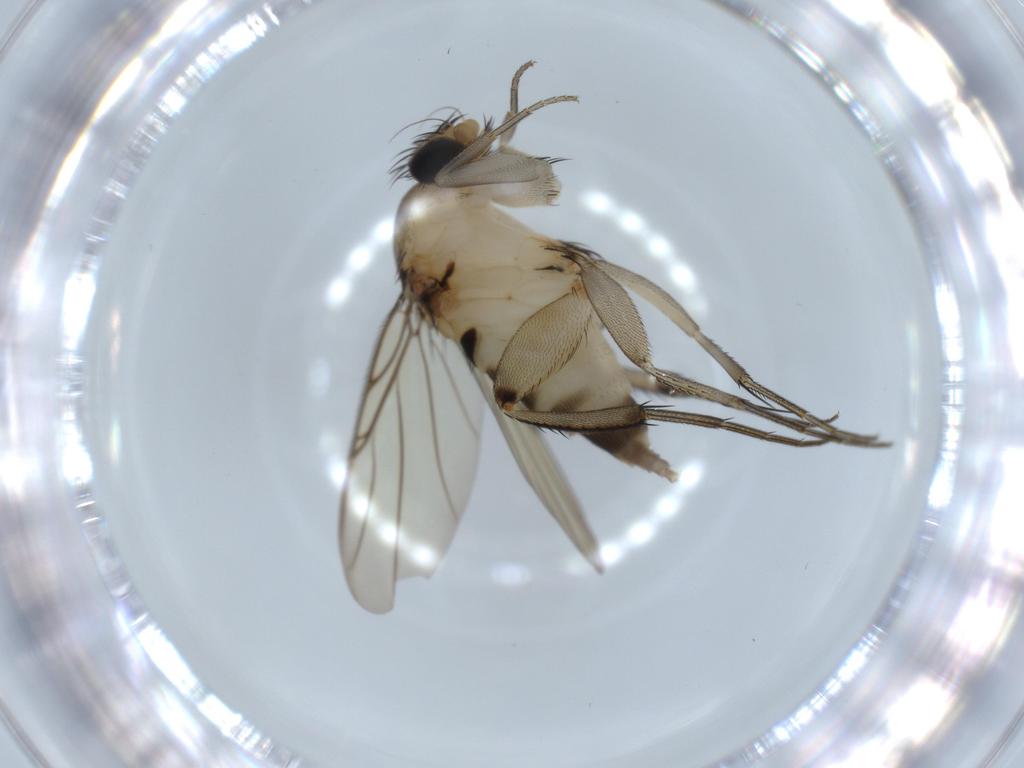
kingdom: Animalia
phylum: Arthropoda
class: Insecta
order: Diptera
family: Phoridae
